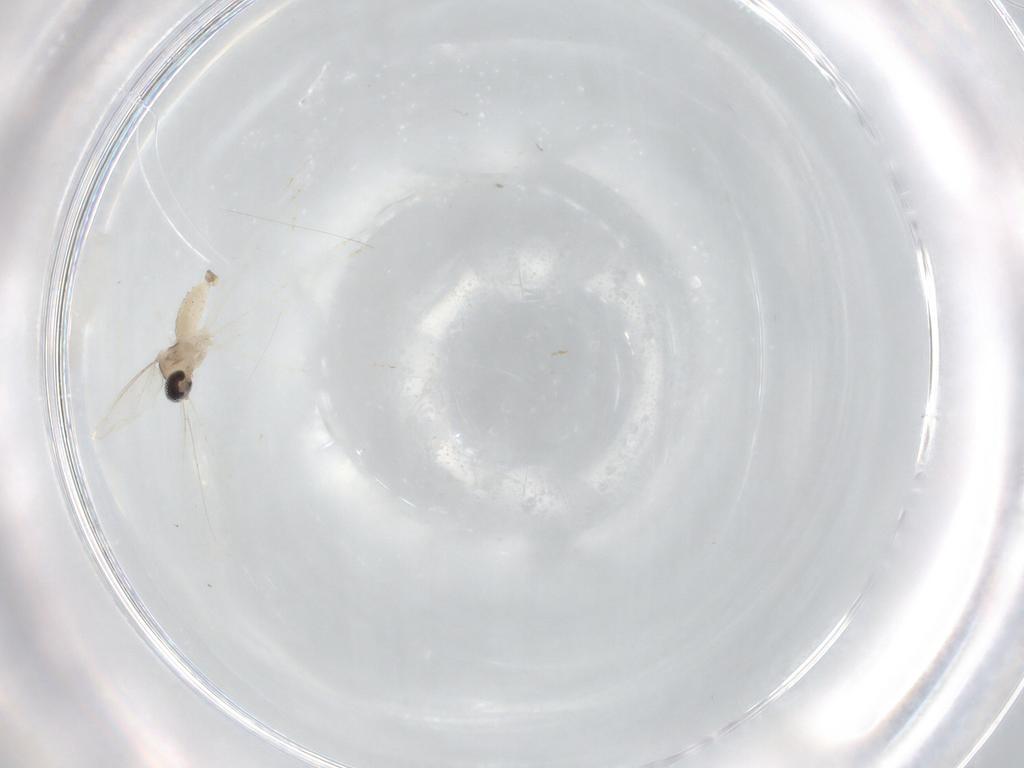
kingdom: Animalia
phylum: Arthropoda
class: Insecta
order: Diptera
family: Cecidomyiidae
